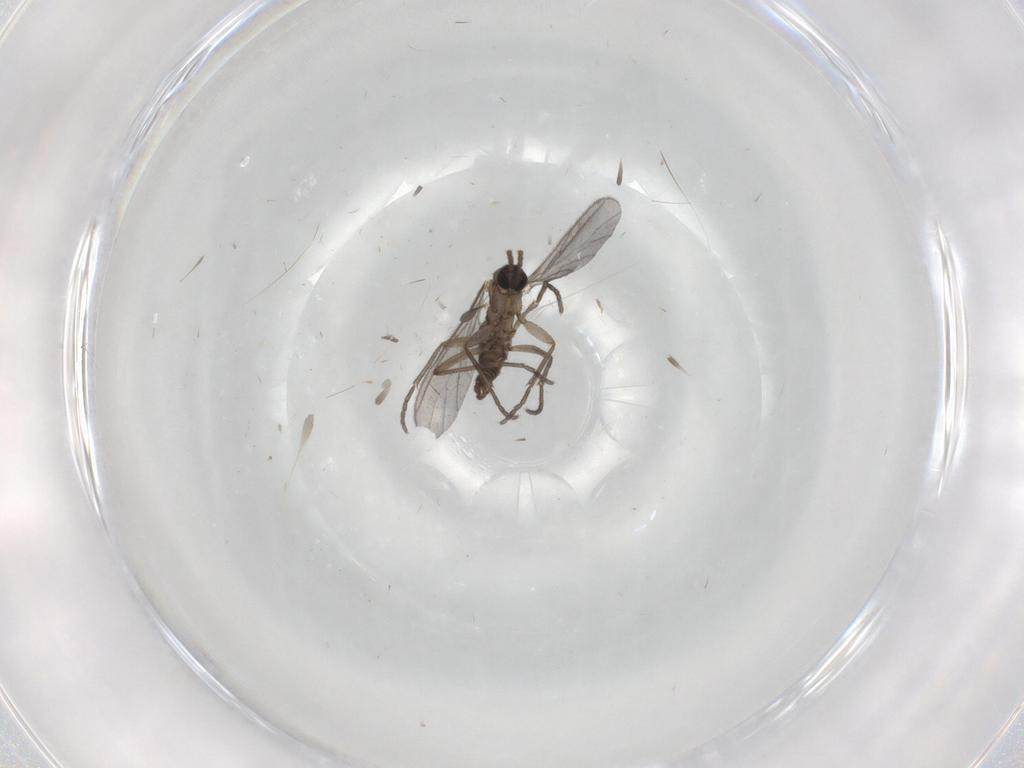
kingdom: Animalia
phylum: Arthropoda
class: Insecta
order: Diptera
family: Sciaridae
